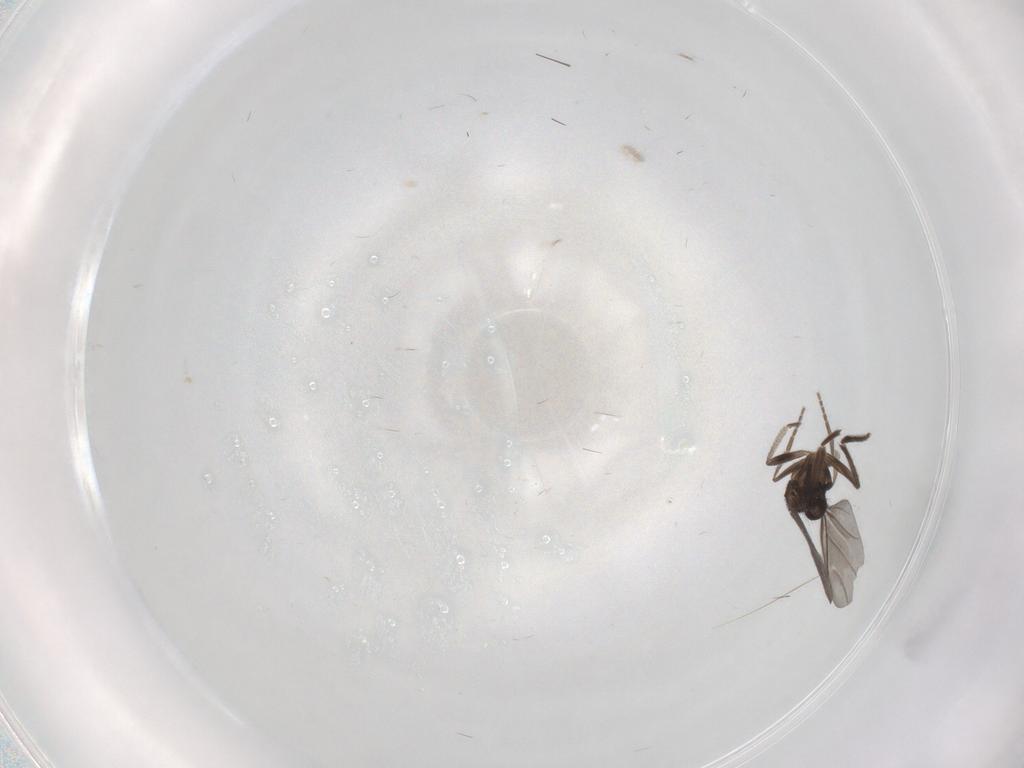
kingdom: Animalia
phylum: Arthropoda
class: Insecta
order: Diptera
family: Phoridae
